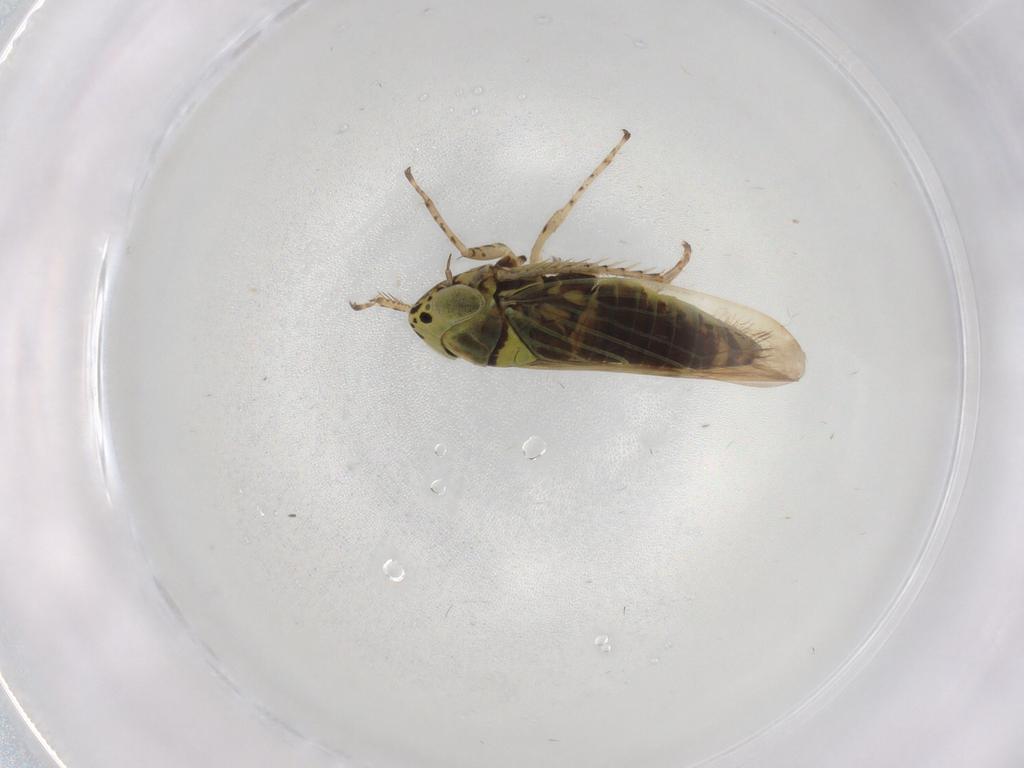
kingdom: Animalia
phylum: Arthropoda
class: Insecta
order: Hemiptera
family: Cicadellidae
